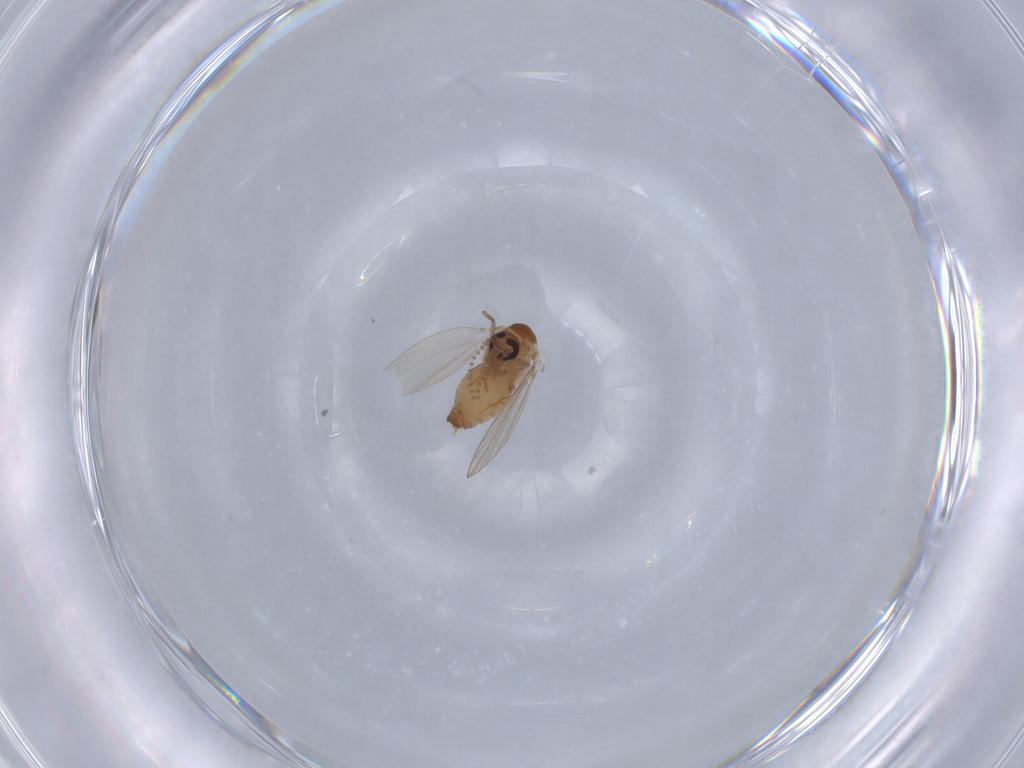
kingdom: Animalia
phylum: Arthropoda
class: Insecta
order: Diptera
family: Psychodidae
